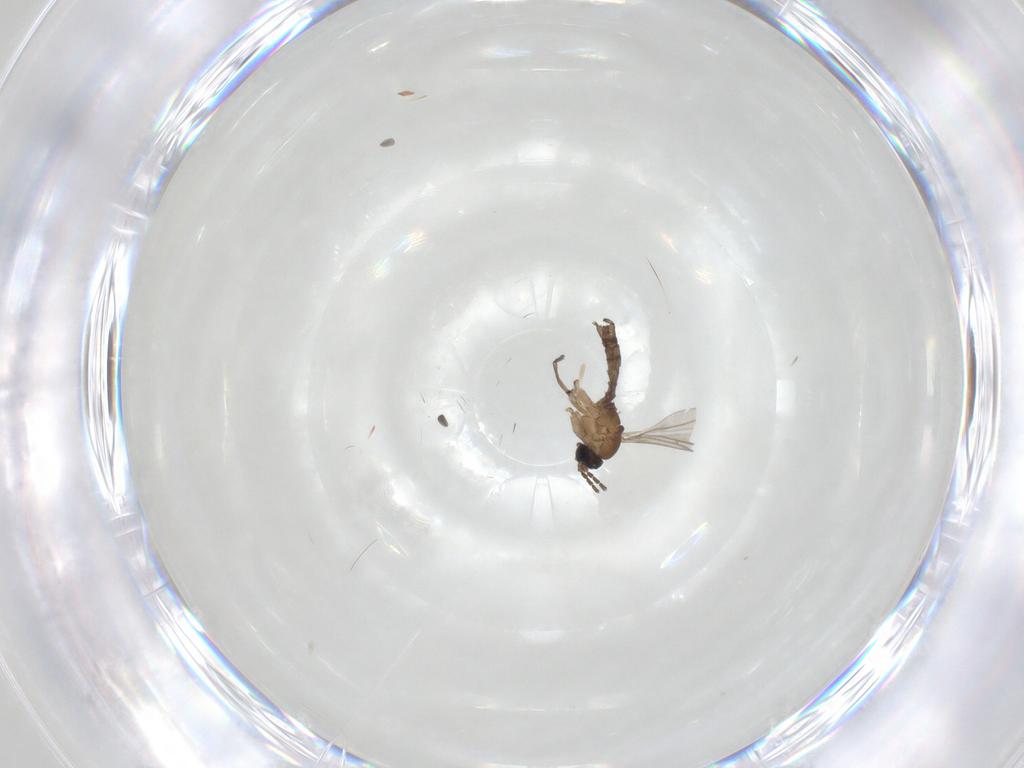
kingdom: Animalia
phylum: Arthropoda
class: Insecta
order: Diptera
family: Sciaridae
